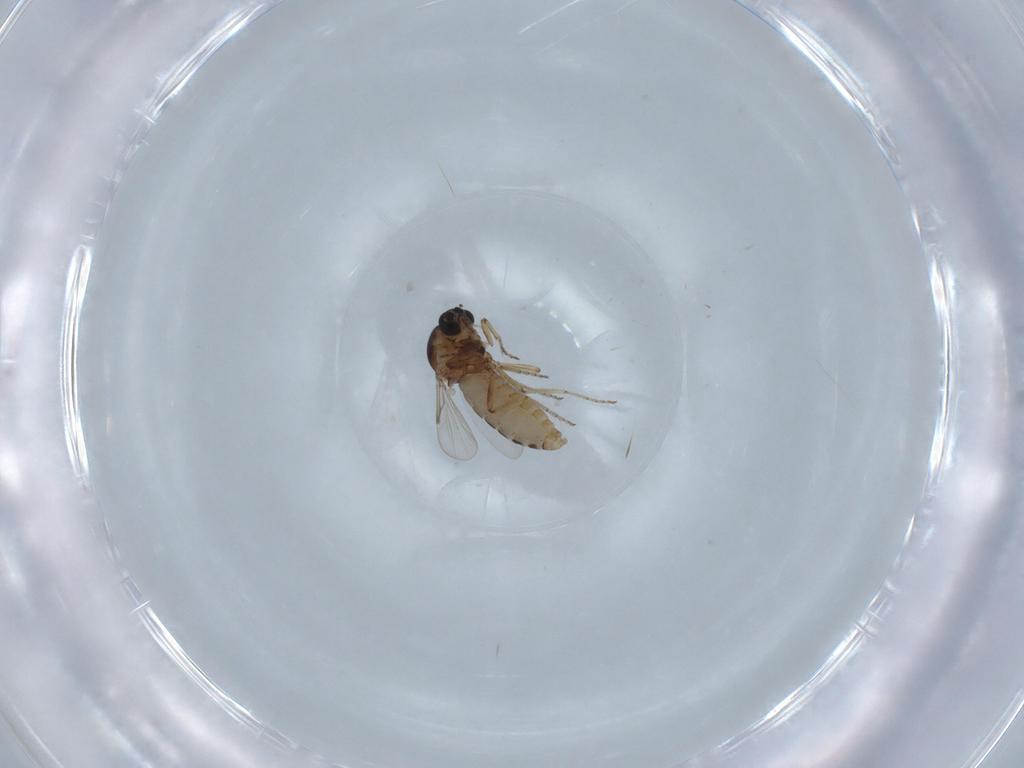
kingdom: Animalia
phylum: Arthropoda
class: Insecta
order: Diptera
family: Ceratopogonidae
